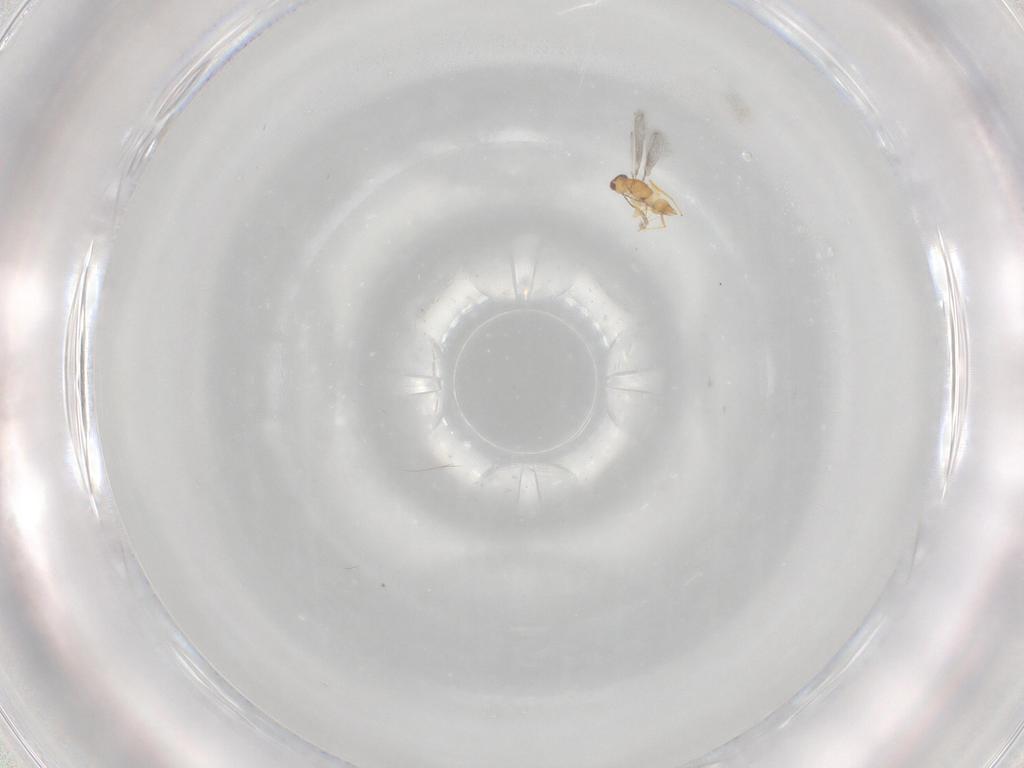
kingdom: Animalia
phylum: Arthropoda
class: Insecta
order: Hymenoptera
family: Mymaridae
